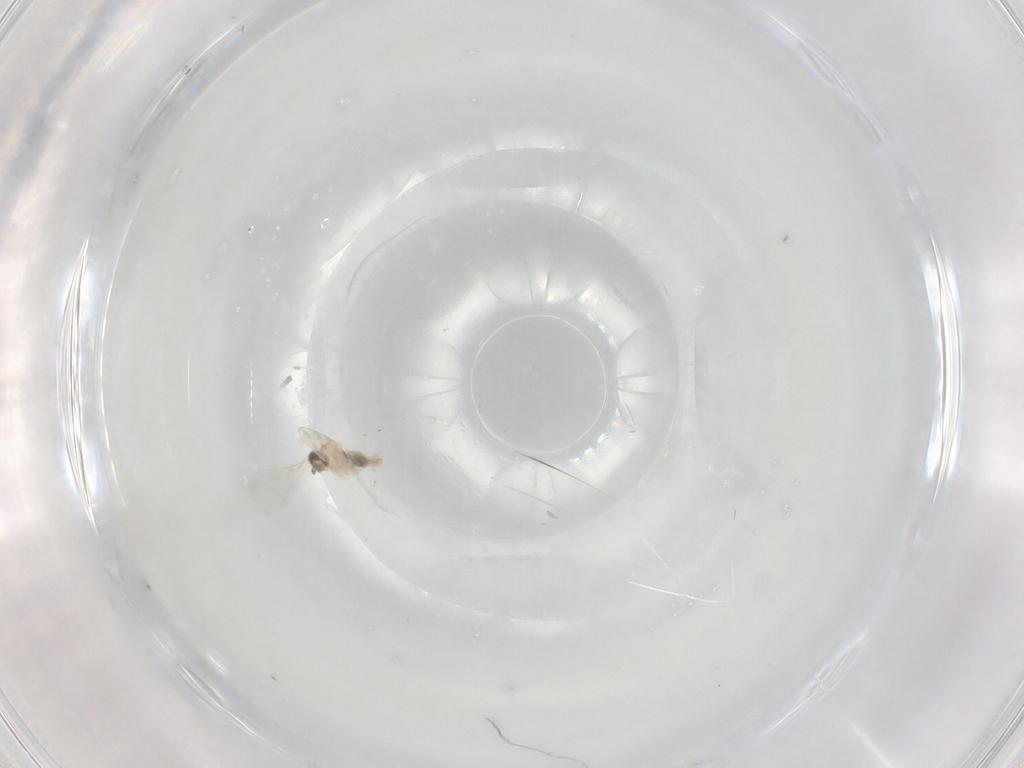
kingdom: Animalia
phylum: Arthropoda
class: Insecta
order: Diptera
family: Cecidomyiidae
